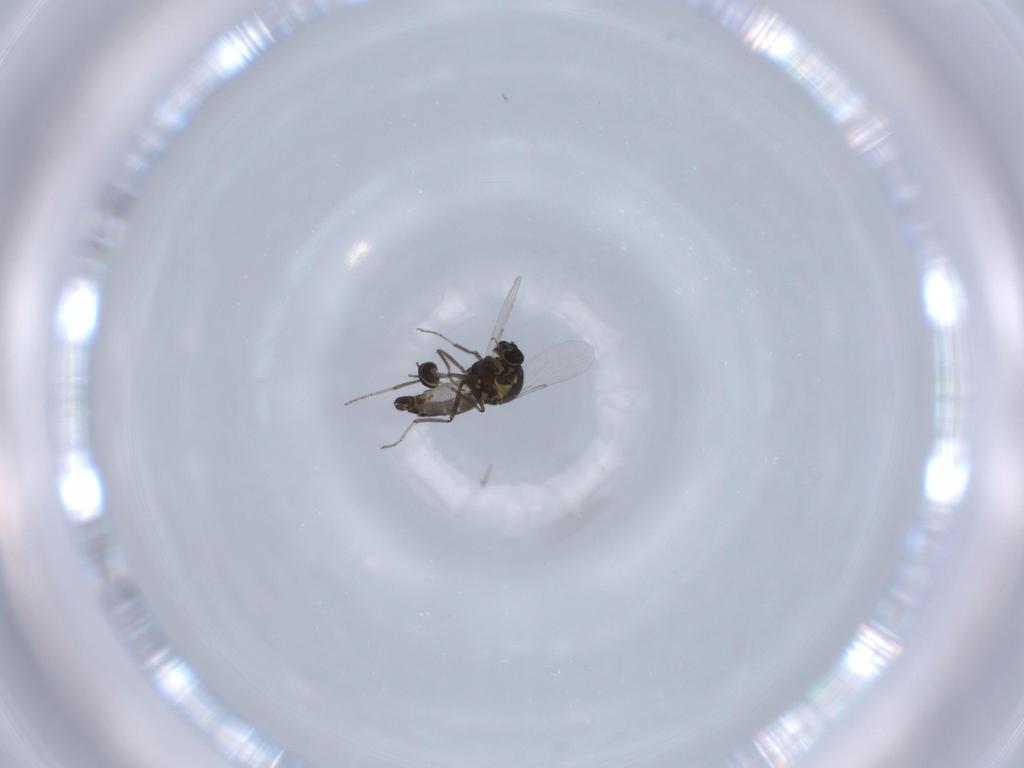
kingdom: Animalia
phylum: Arthropoda
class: Insecta
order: Diptera
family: Ceratopogonidae
